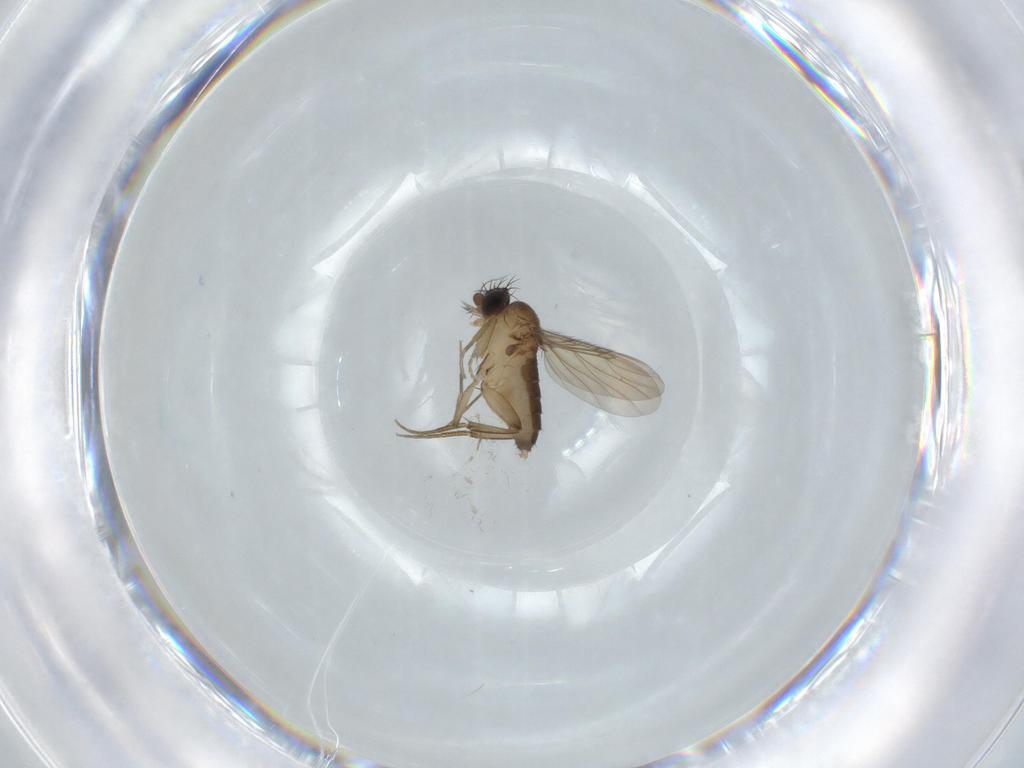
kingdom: Animalia
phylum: Arthropoda
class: Insecta
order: Diptera
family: Phoridae
